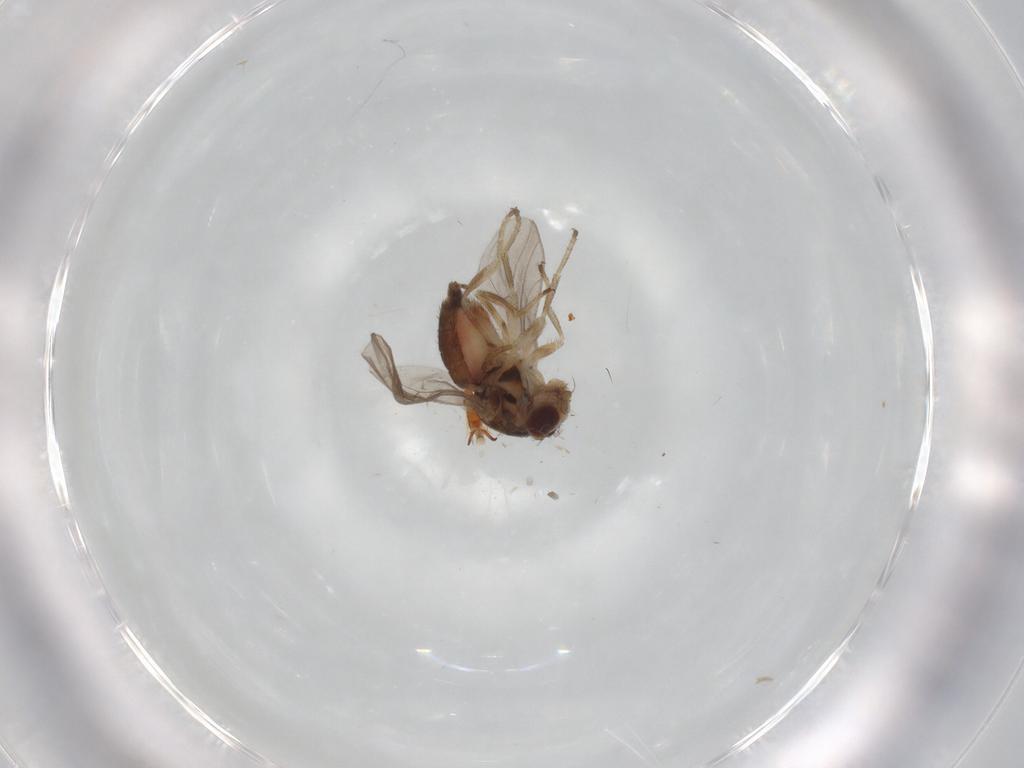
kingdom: Animalia
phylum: Arthropoda
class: Insecta
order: Diptera
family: Chloropidae
